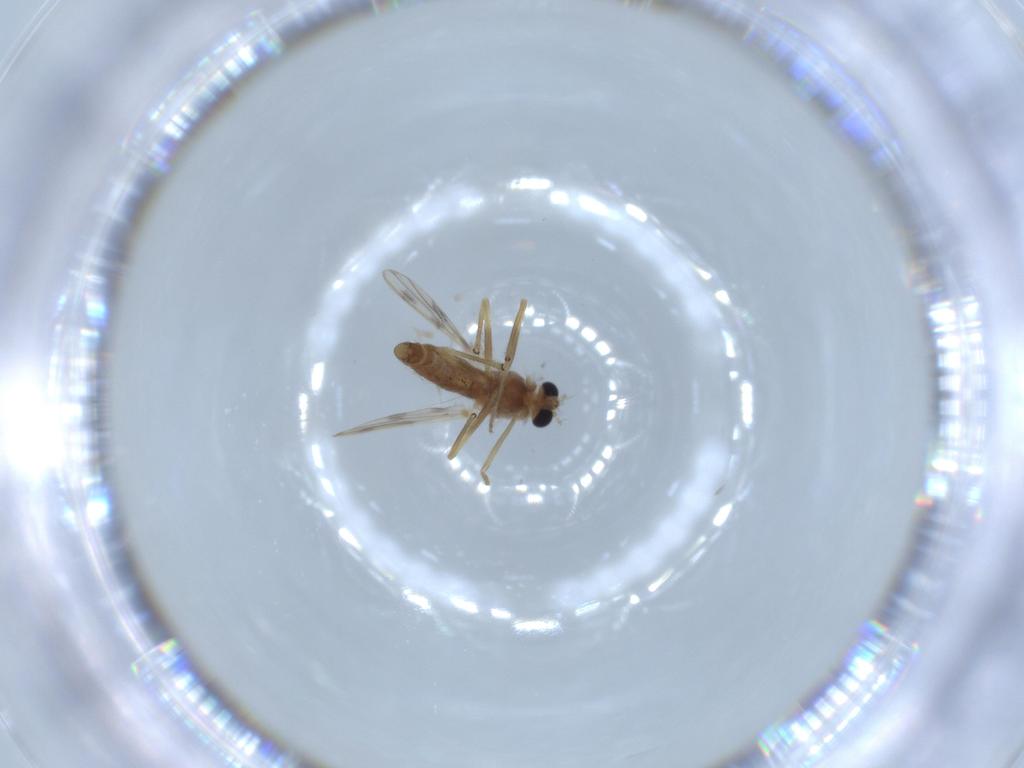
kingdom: Animalia
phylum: Arthropoda
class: Insecta
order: Diptera
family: Chironomidae
